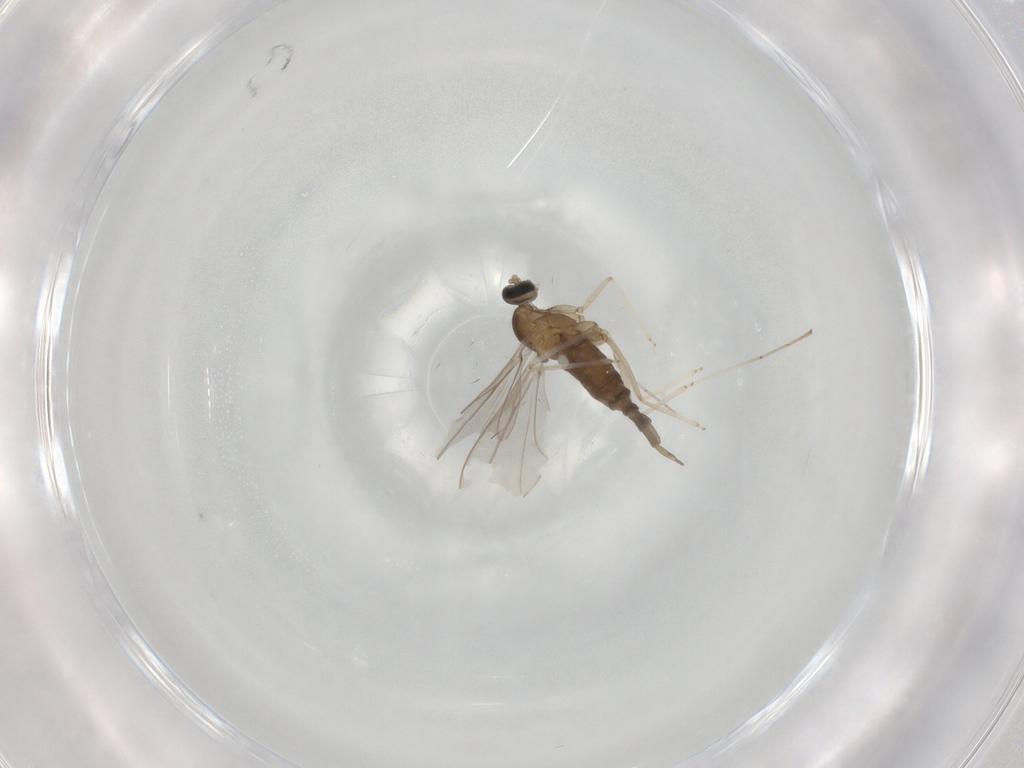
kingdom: Animalia
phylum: Arthropoda
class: Insecta
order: Diptera
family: Cecidomyiidae
